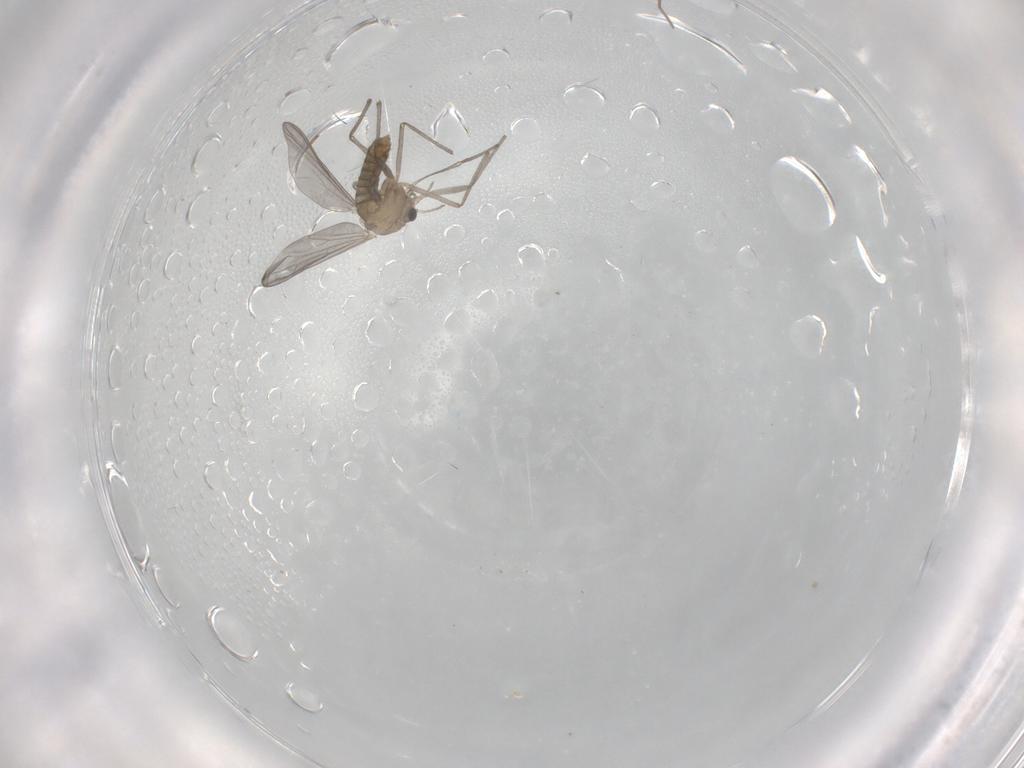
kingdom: Animalia
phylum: Arthropoda
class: Insecta
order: Diptera
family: Chironomidae
